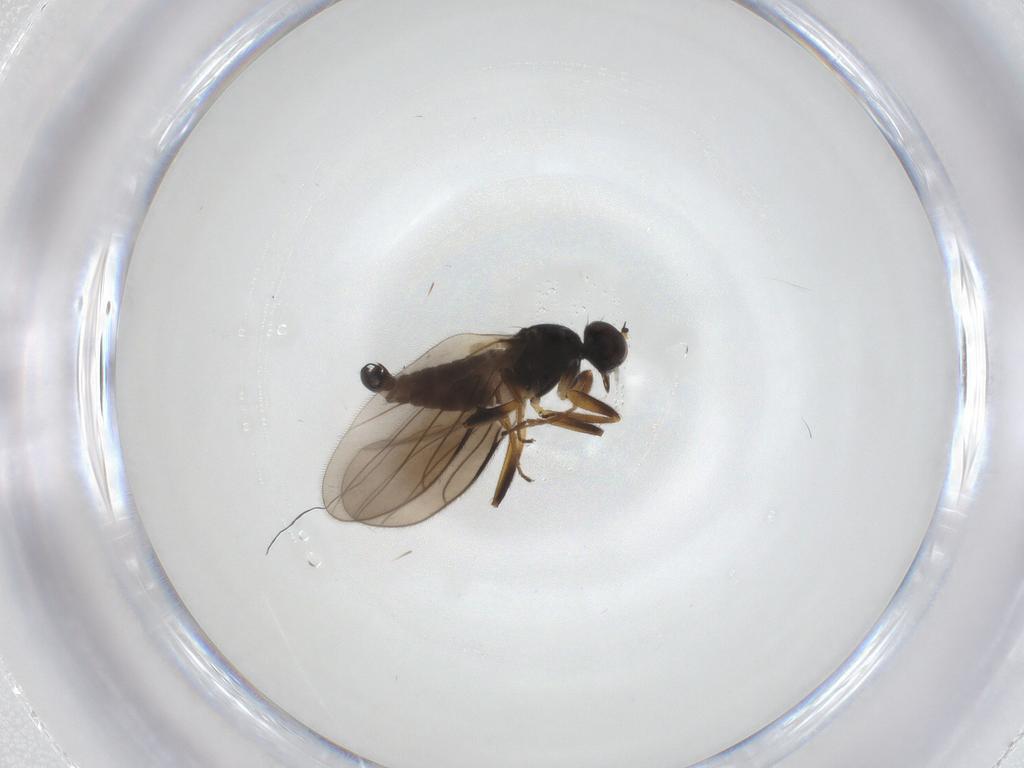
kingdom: Animalia
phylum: Arthropoda
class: Insecta
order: Diptera
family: Hybotidae
